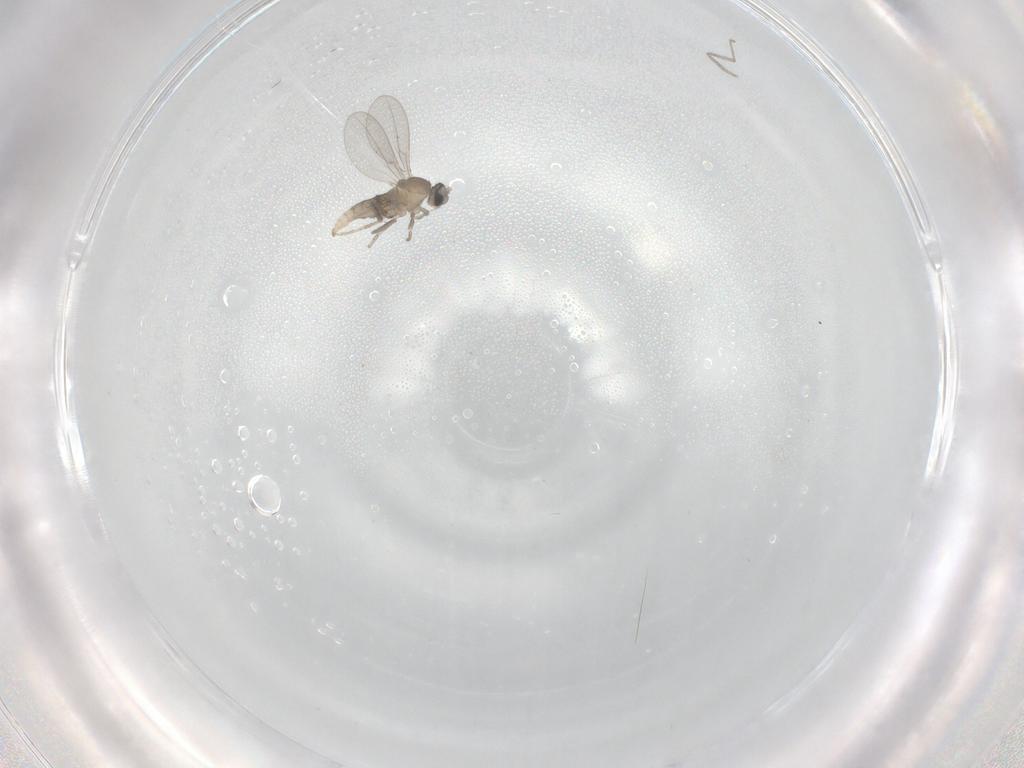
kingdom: Animalia
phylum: Arthropoda
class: Insecta
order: Diptera
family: Cecidomyiidae
